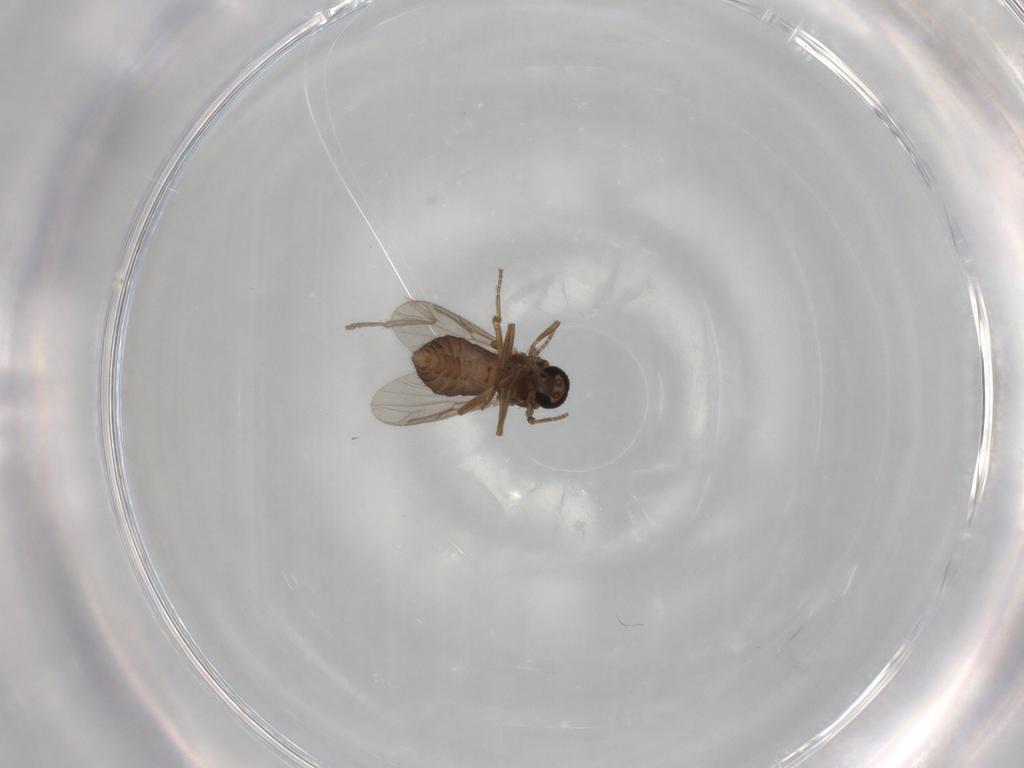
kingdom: Animalia
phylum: Arthropoda
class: Insecta
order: Diptera
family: Ceratopogonidae
